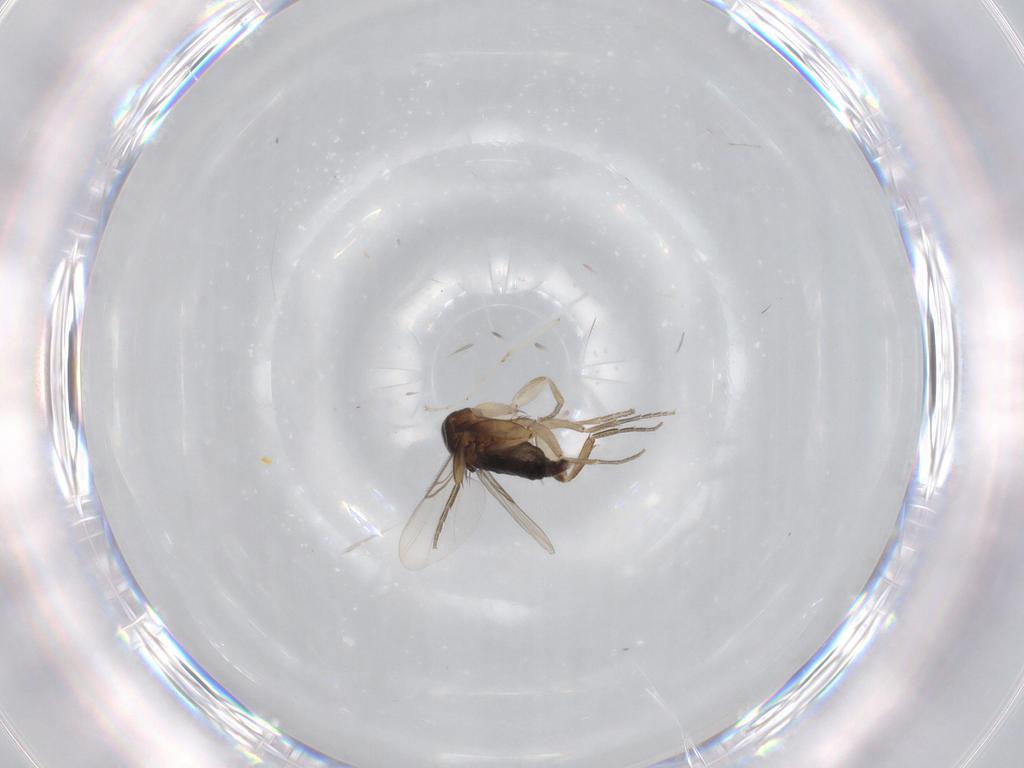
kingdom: Animalia
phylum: Arthropoda
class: Insecta
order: Diptera
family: Phoridae
